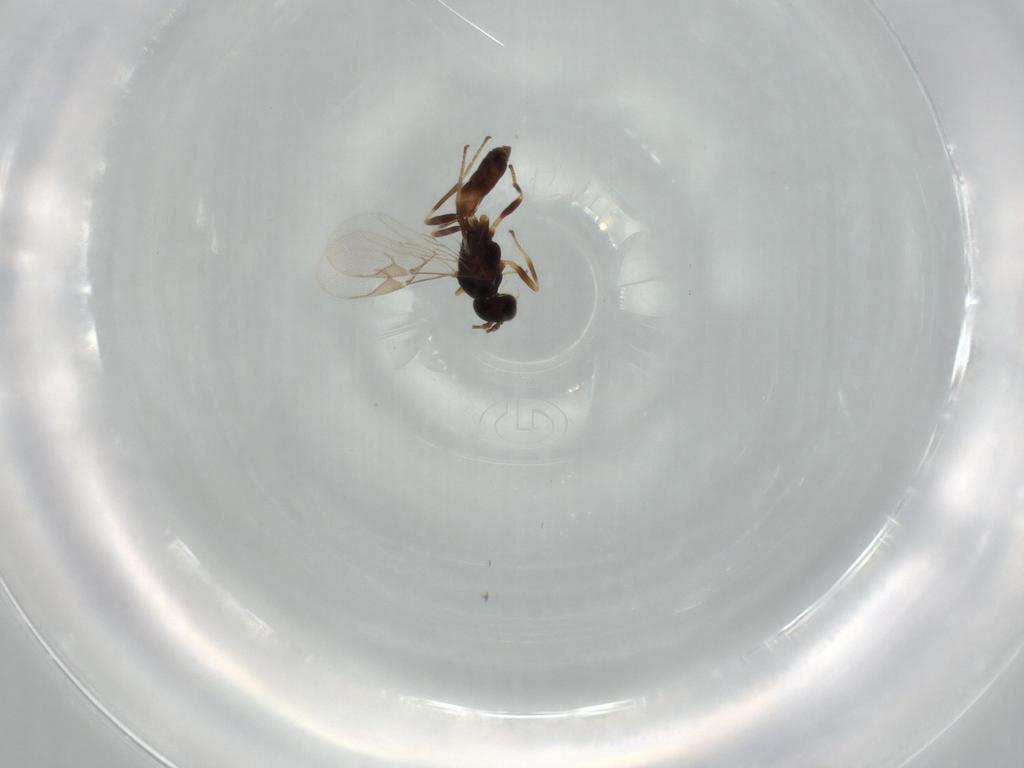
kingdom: Animalia
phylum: Arthropoda
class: Insecta
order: Hymenoptera
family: Braconidae
